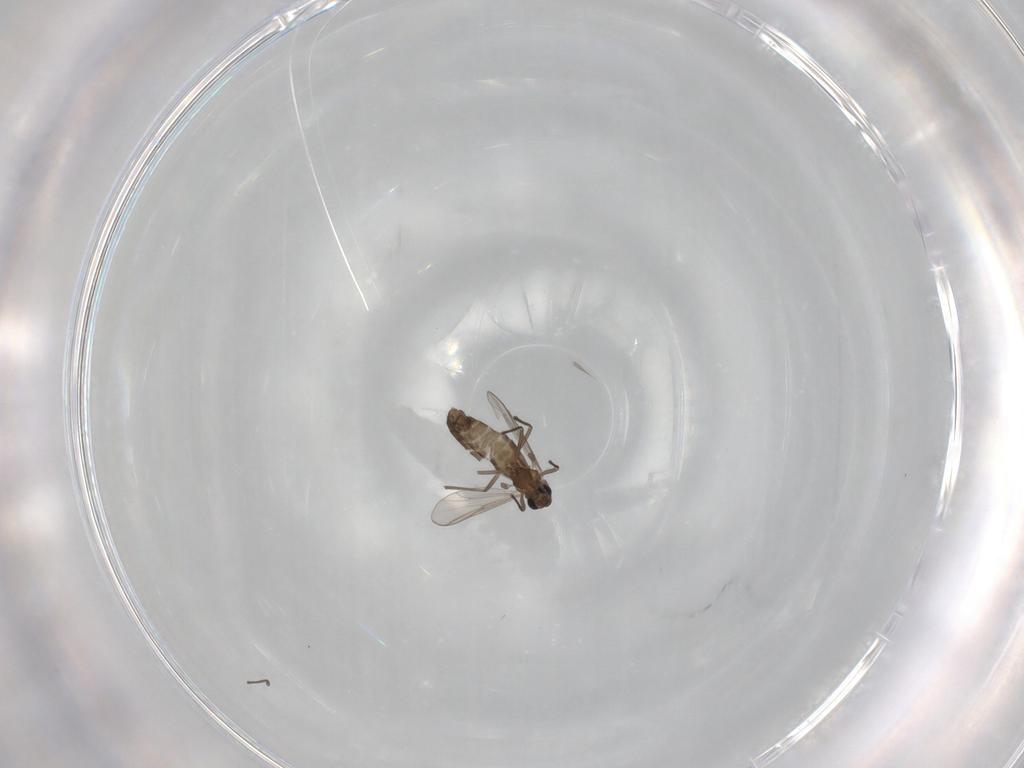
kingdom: Animalia
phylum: Arthropoda
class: Insecta
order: Diptera
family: Chironomidae
